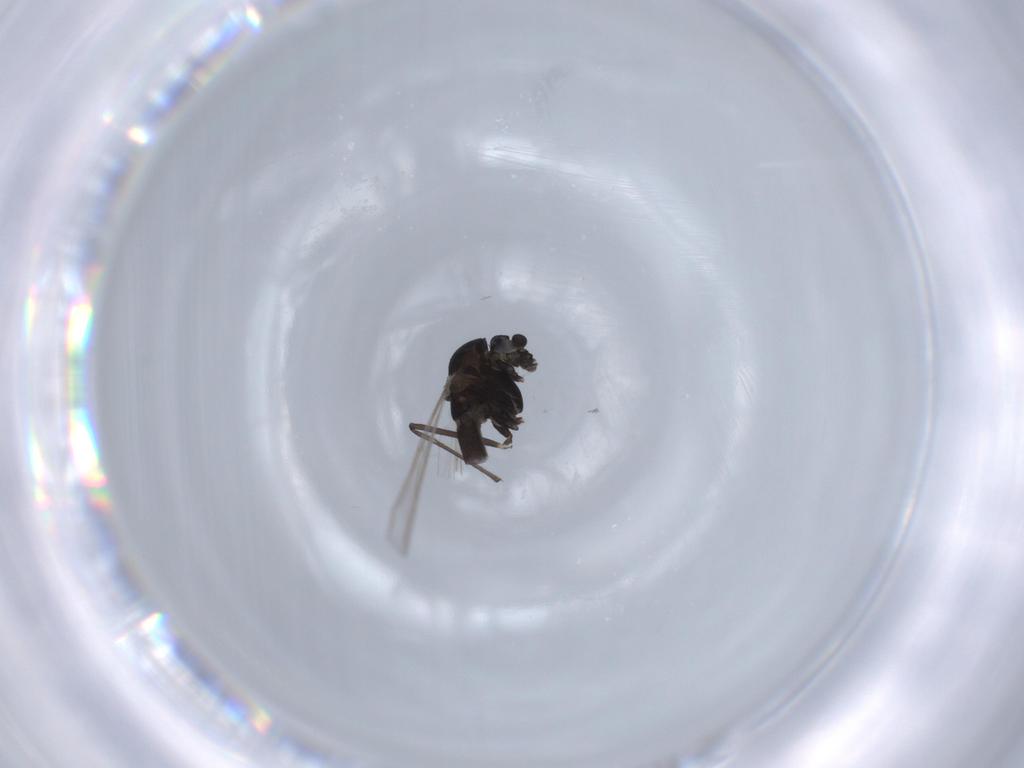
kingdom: Animalia
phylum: Arthropoda
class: Insecta
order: Diptera
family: Chironomidae
